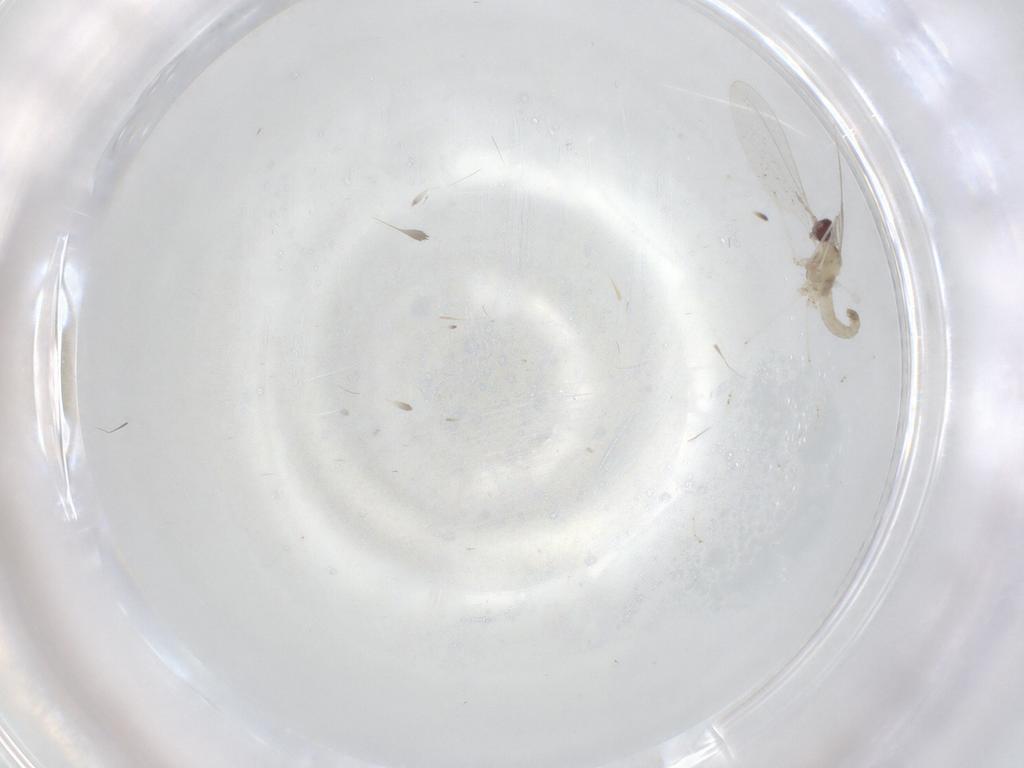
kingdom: Animalia
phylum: Arthropoda
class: Insecta
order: Diptera
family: Cecidomyiidae
